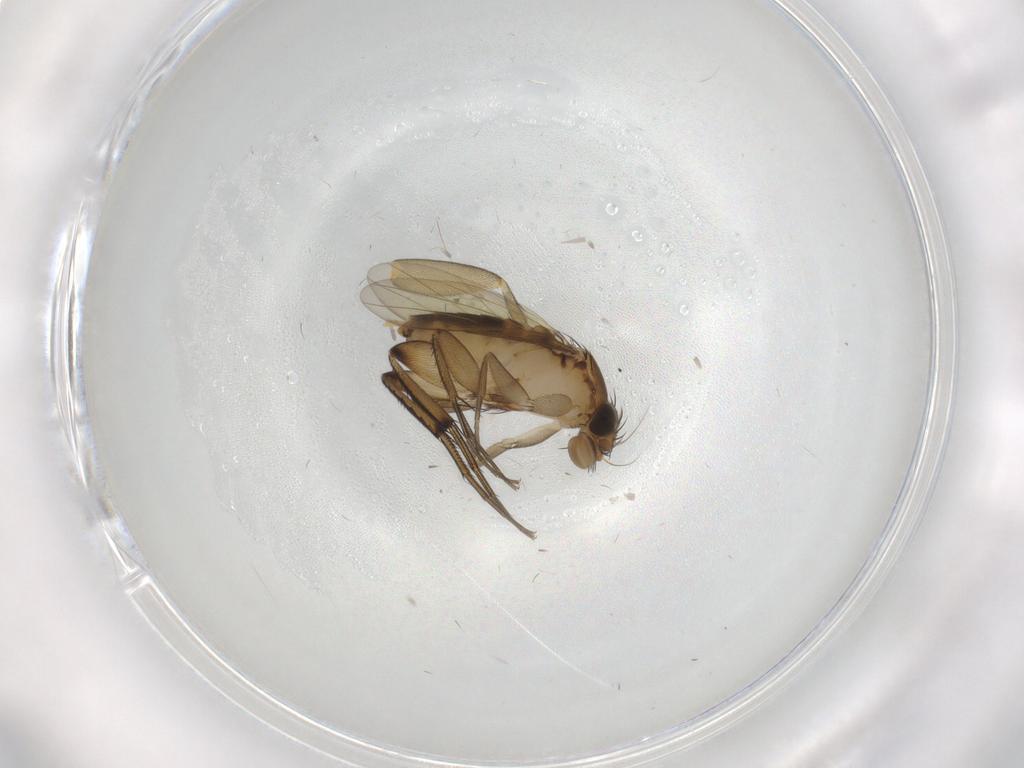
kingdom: Animalia
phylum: Arthropoda
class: Insecta
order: Diptera
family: Phoridae
